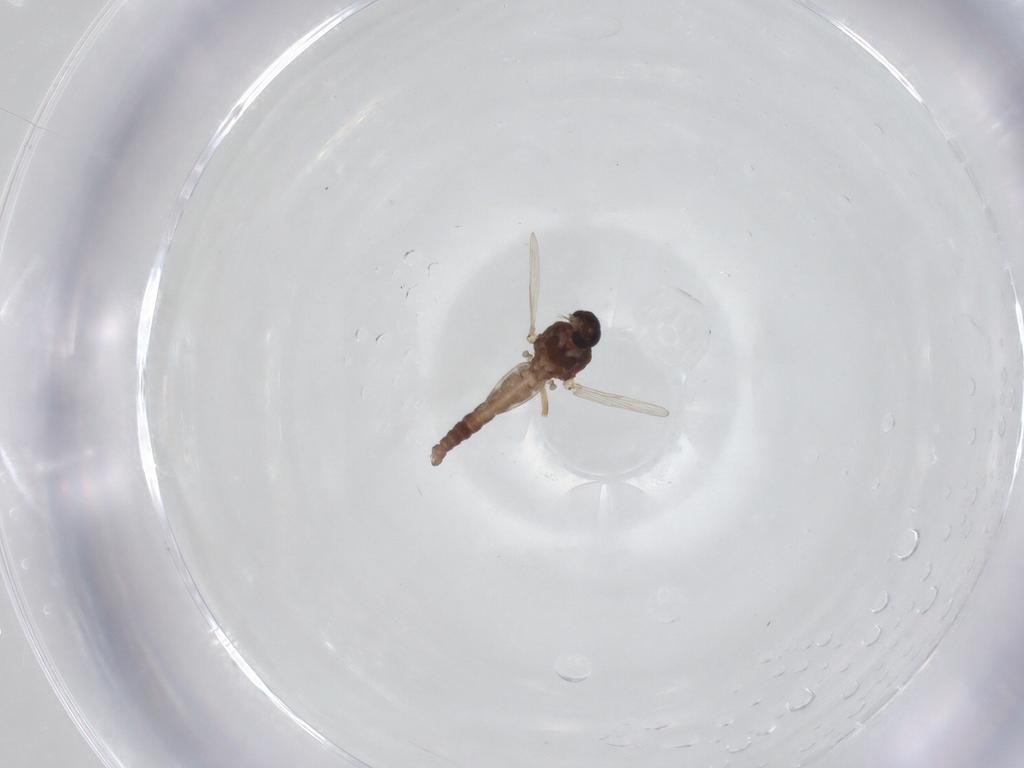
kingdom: Animalia
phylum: Arthropoda
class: Insecta
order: Diptera
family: Ceratopogonidae
